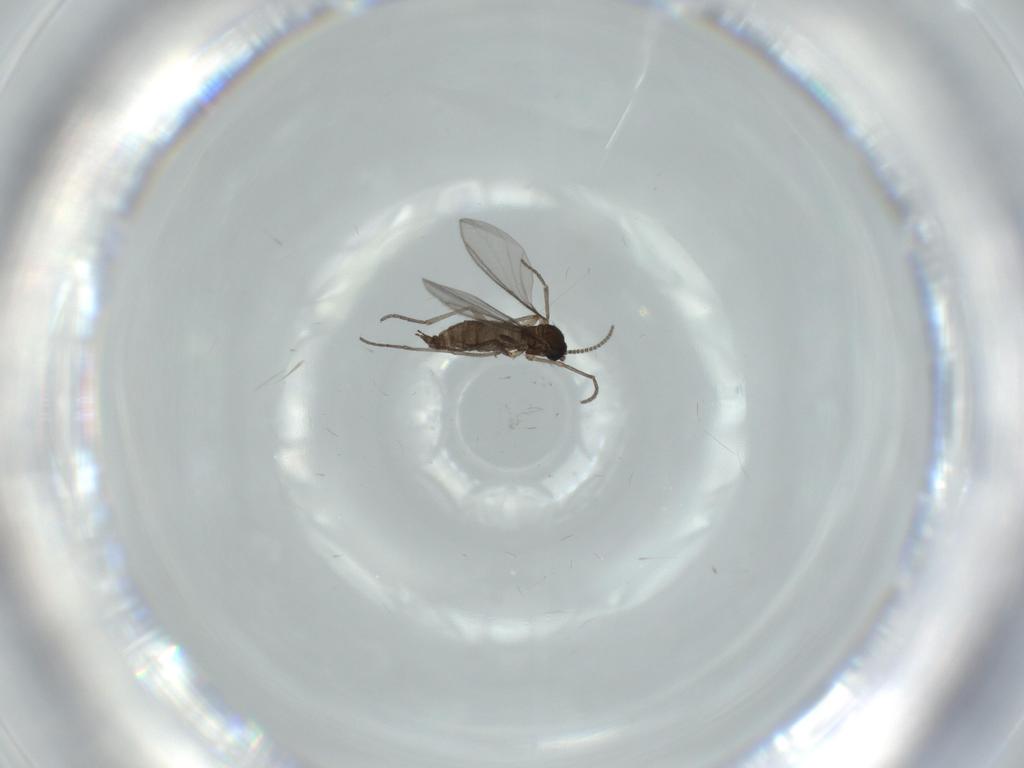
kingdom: Animalia
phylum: Arthropoda
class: Insecta
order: Diptera
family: Sciaridae
